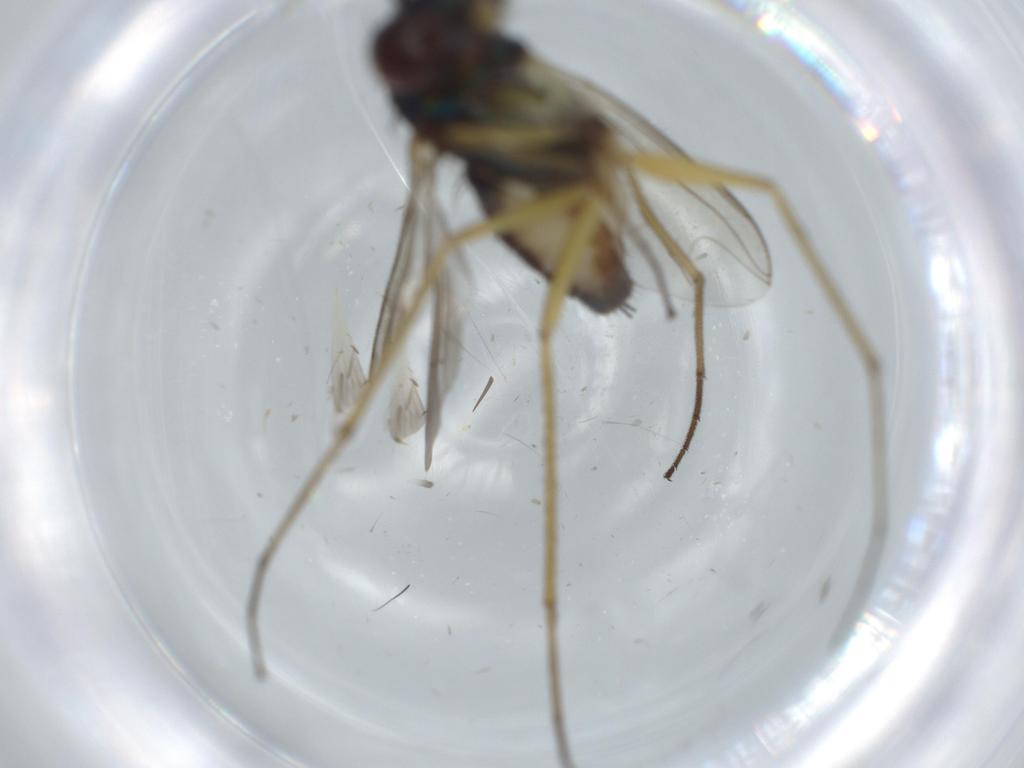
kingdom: Animalia
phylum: Arthropoda
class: Insecta
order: Diptera
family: Dolichopodidae
